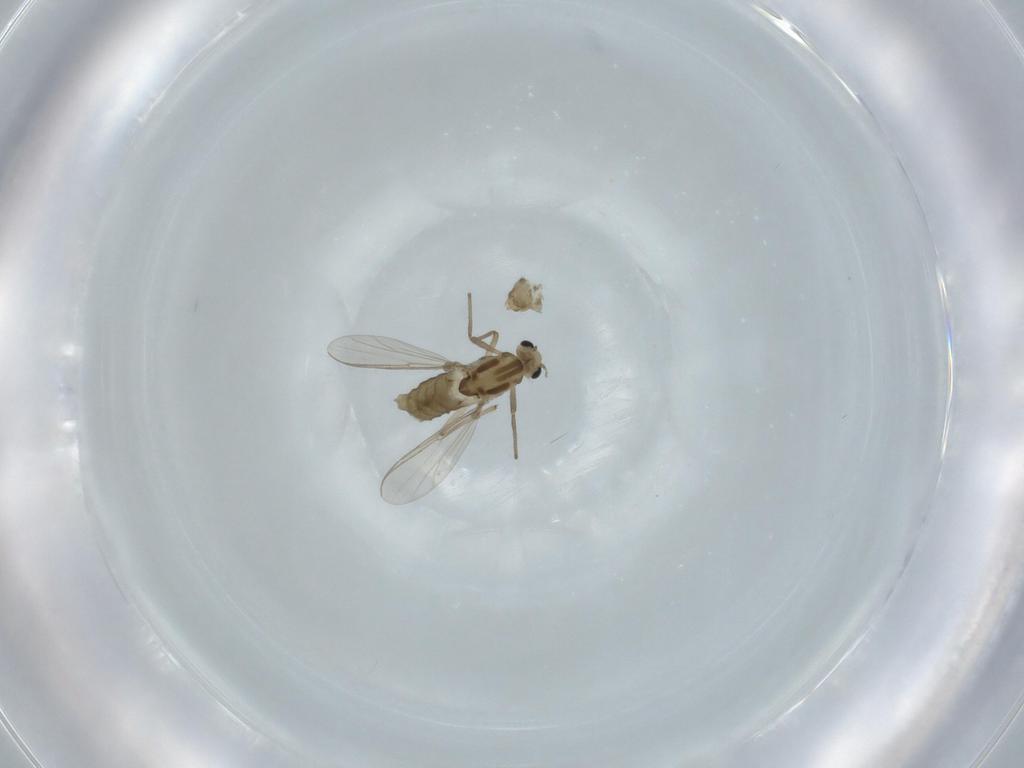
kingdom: Animalia
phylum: Arthropoda
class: Insecta
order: Diptera
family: Chironomidae
